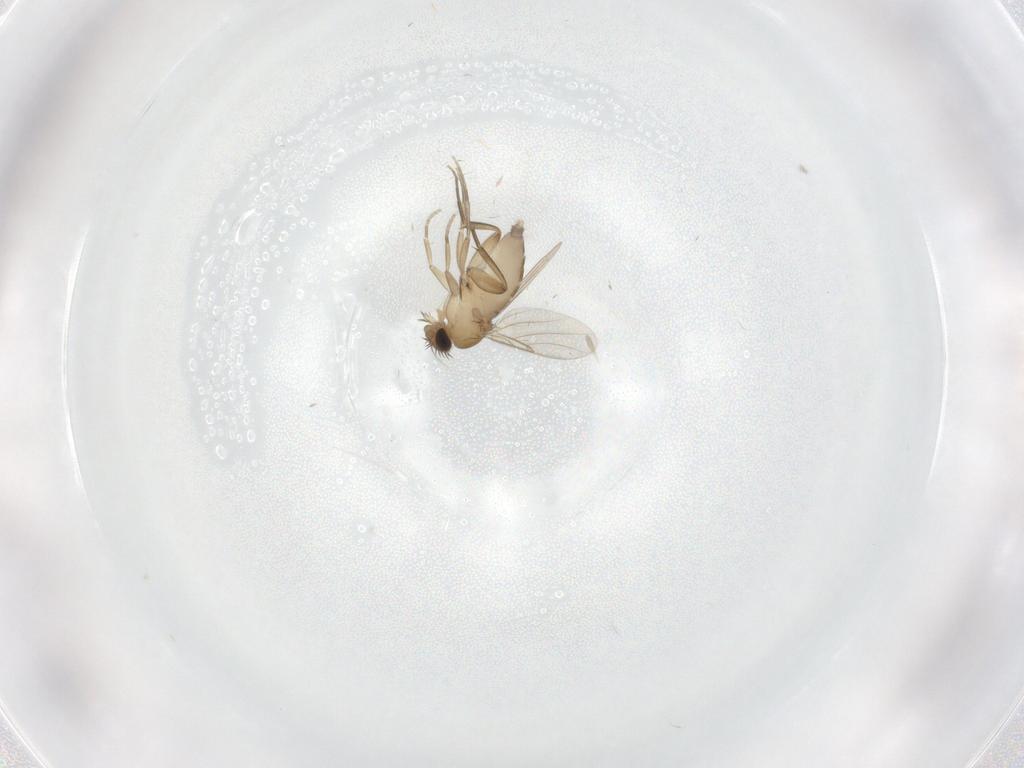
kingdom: Animalia
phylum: Arthropoda
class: Insecta
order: Diptera
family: Phoridae
